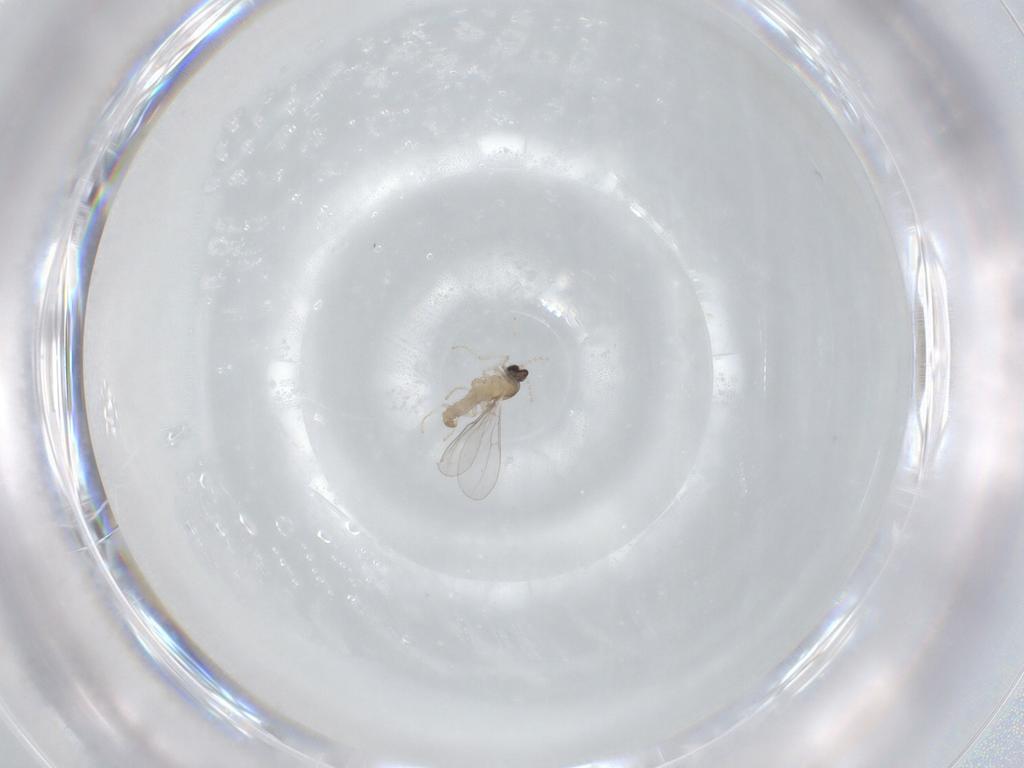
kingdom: Animalia
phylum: Arthropoda
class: Insecta
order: Diptera
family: Cecidomyiidae
